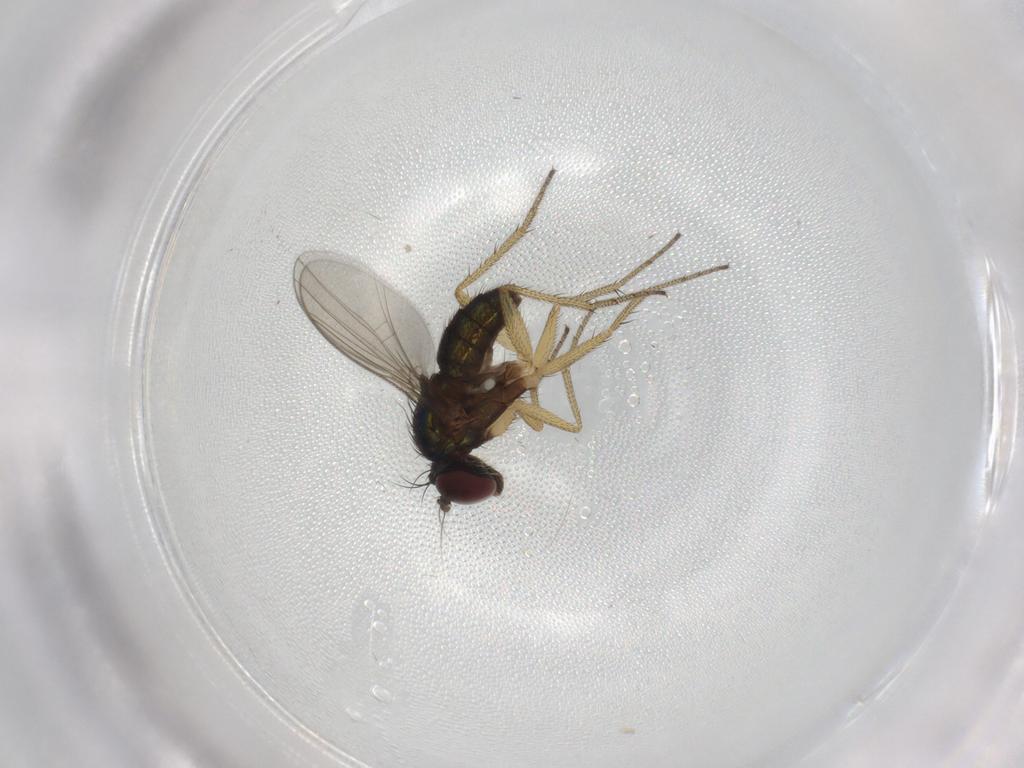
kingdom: Animalia
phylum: Arthropoda
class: Insecta
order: Diptera
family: Dolichopodidae
